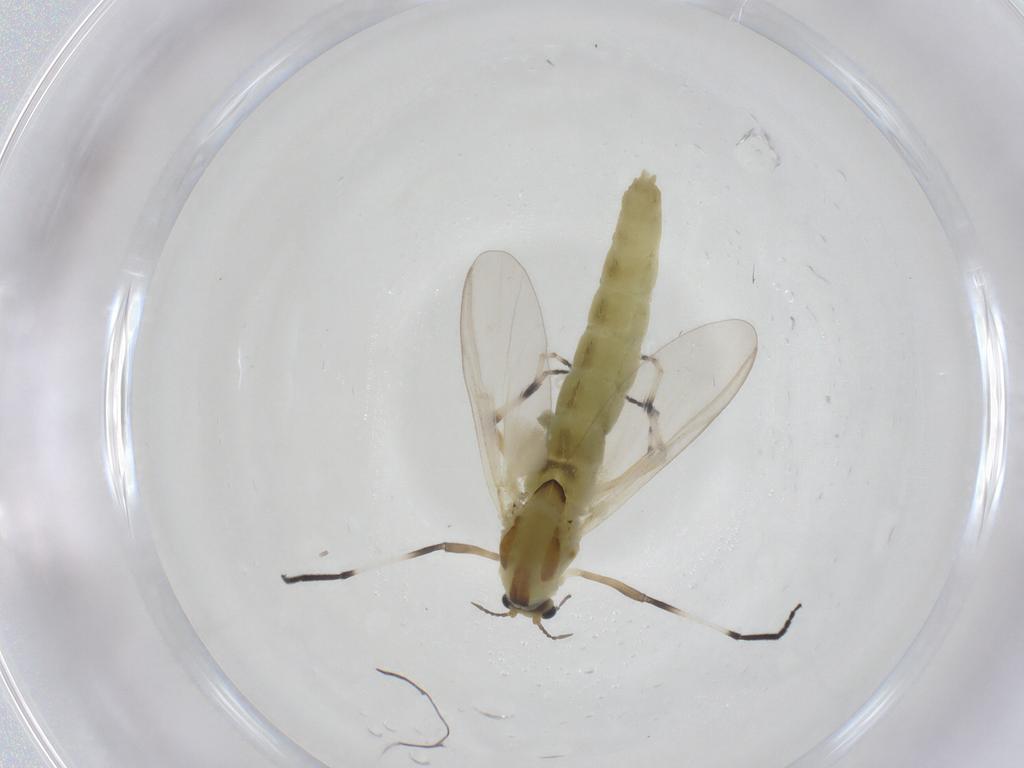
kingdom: Animalia
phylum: Arthropoda
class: Insecta
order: Diptera
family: Chironomidae
